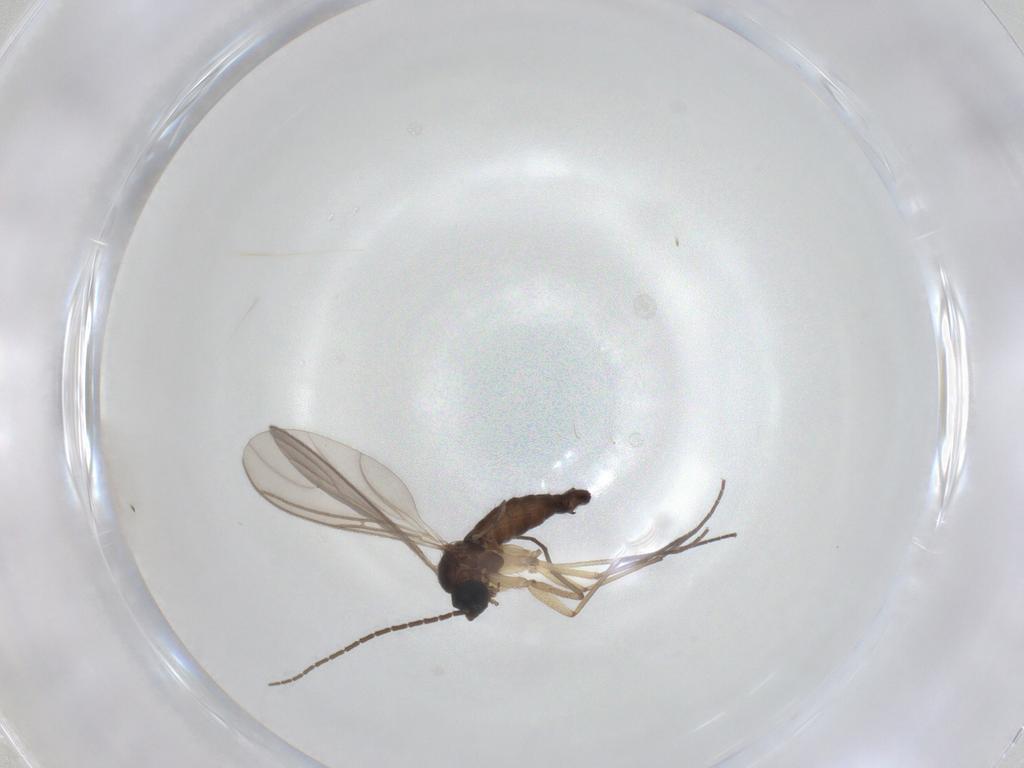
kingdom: Animalia
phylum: Arthropoda
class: Insecta
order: Diptera
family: Sciaridae
